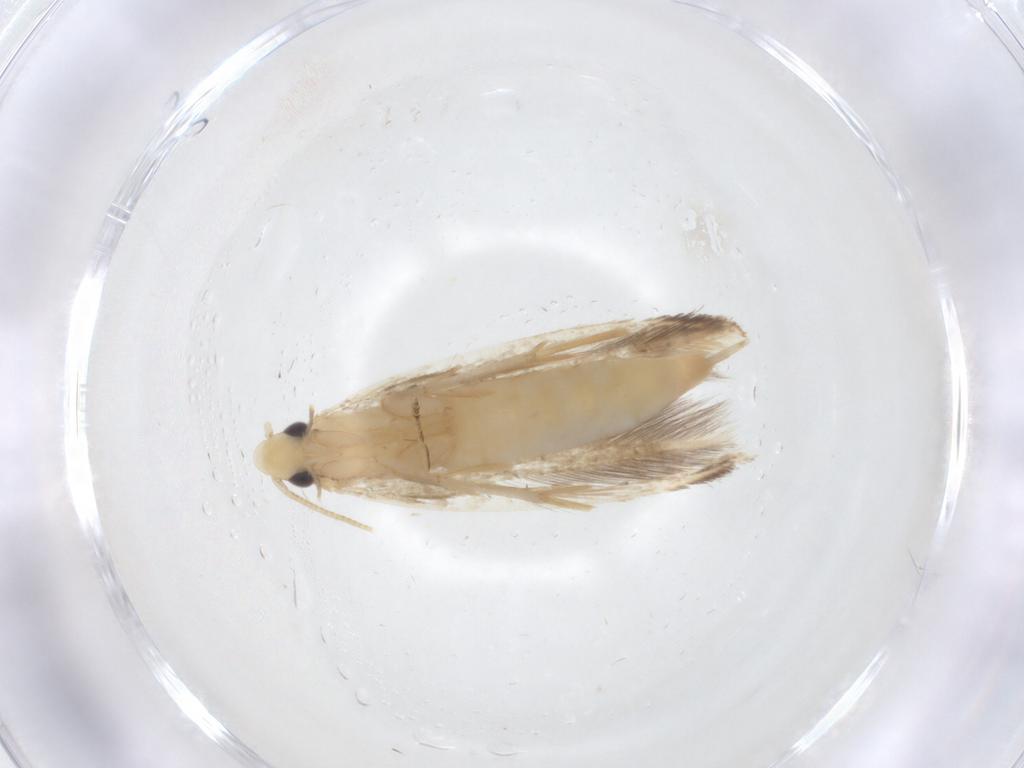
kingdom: Animalia
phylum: Arthropoda
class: Insecta
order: Lepidoptera
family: Tineidae
